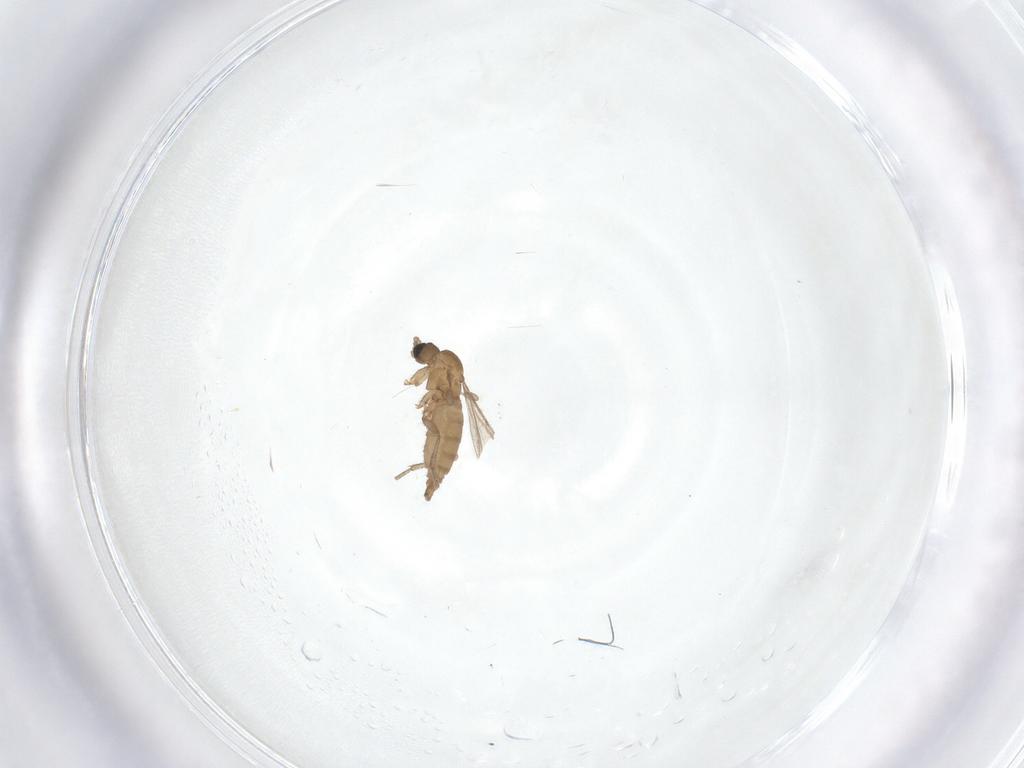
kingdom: Animalia
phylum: Arthropoda
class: Insecta
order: Diptera
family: Sciaridae
